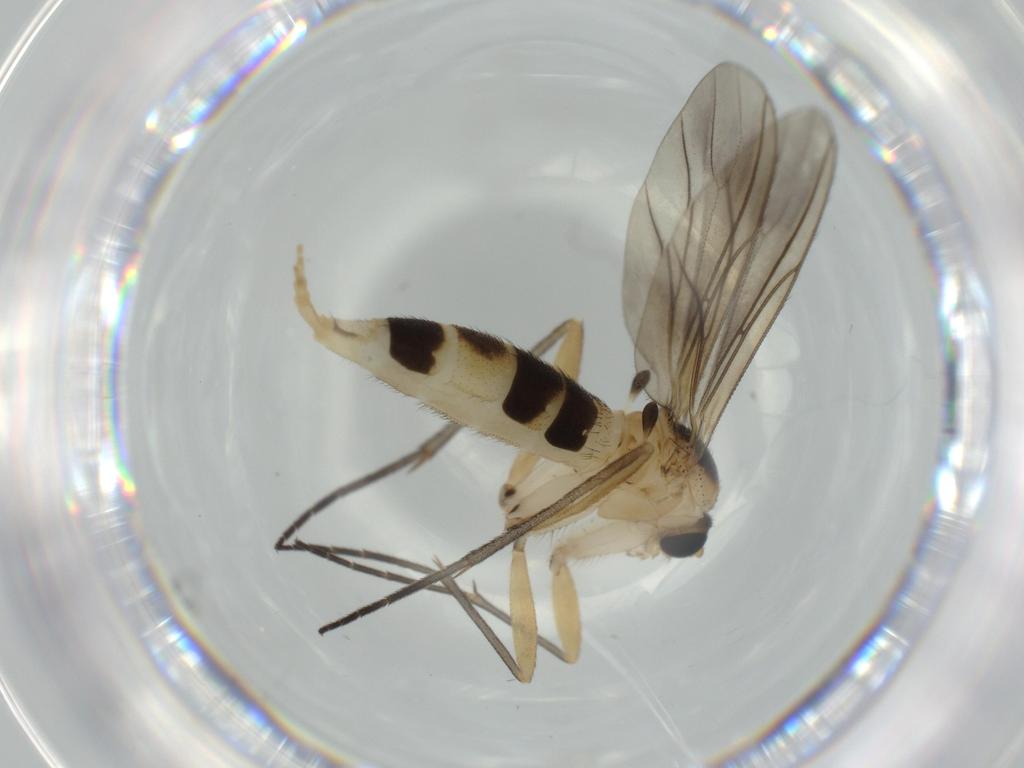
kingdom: Animalia
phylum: Arthropoda
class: Insecta
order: Diptera
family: Sciaridae
